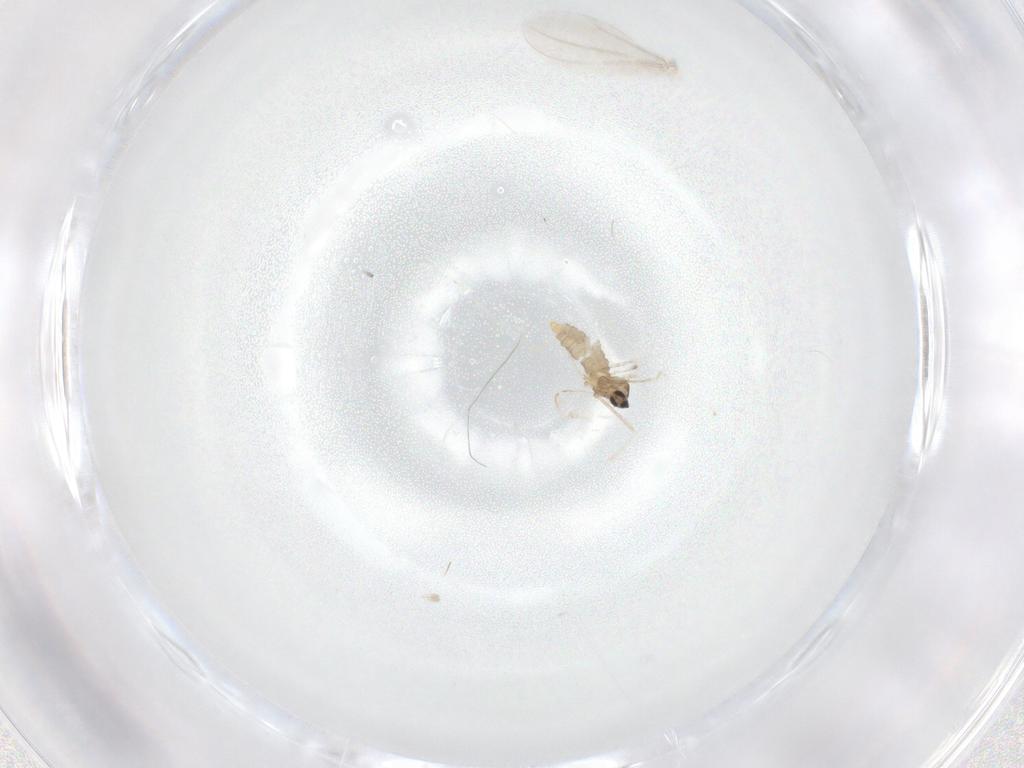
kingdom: Animalia
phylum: Arthropoda
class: Insecta
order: Diptera
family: Cecidomyiidae
